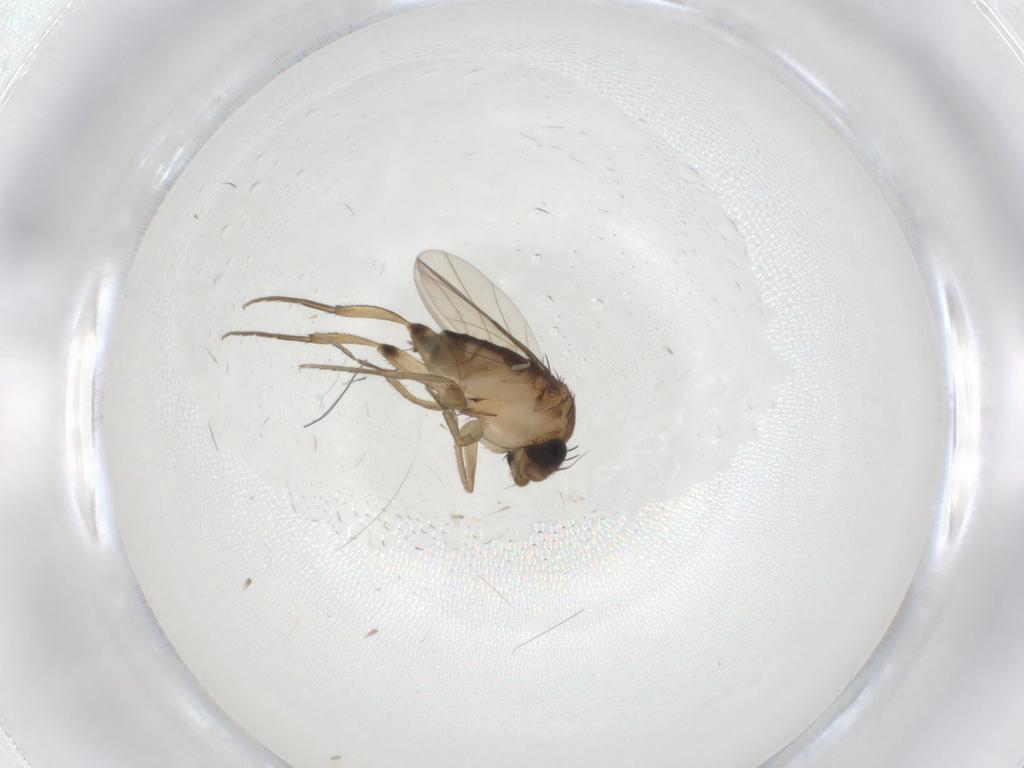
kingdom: Animalia
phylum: Arthropoda
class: Insecta
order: Diptera
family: Phoridae
